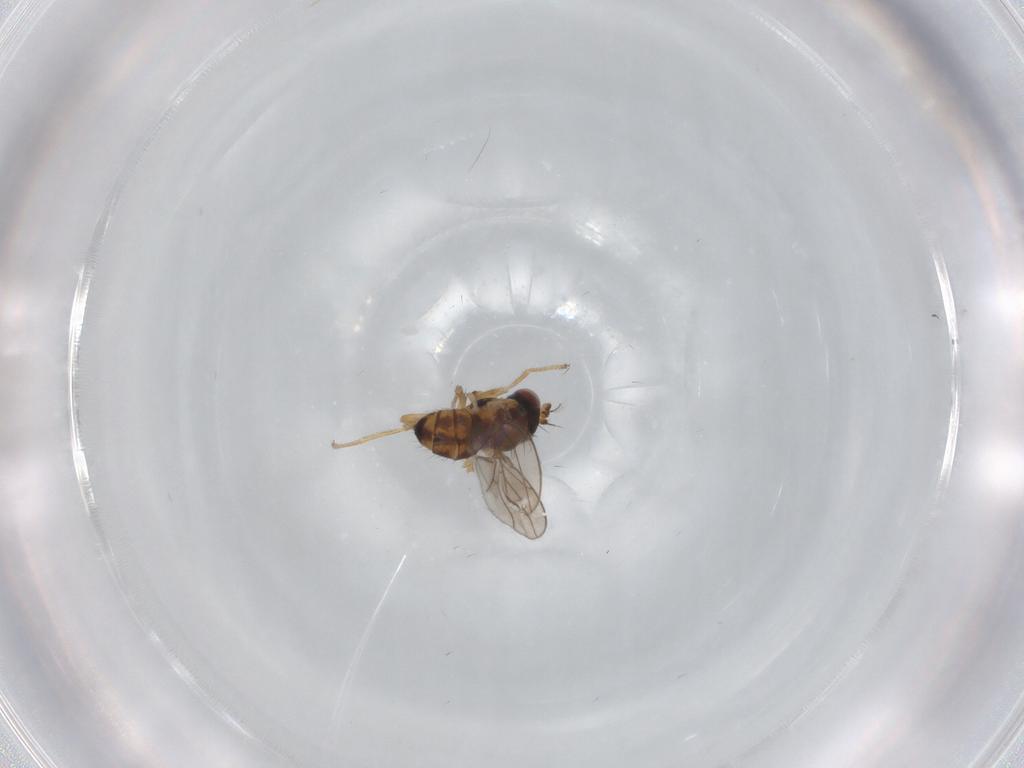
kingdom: Animalia
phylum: Arthropoda
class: Insecta
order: Diptera
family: Ephydridae
